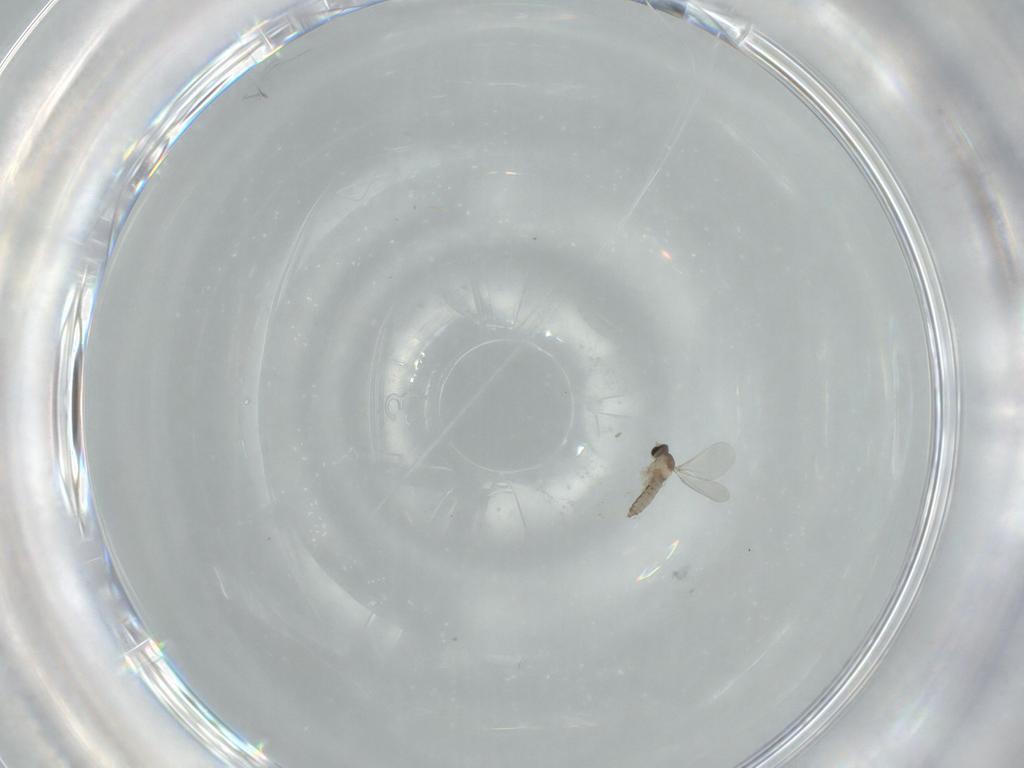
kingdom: Animalia
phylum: Arthropoda
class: Insecta
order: Diptera
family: Cecidomyiidae
